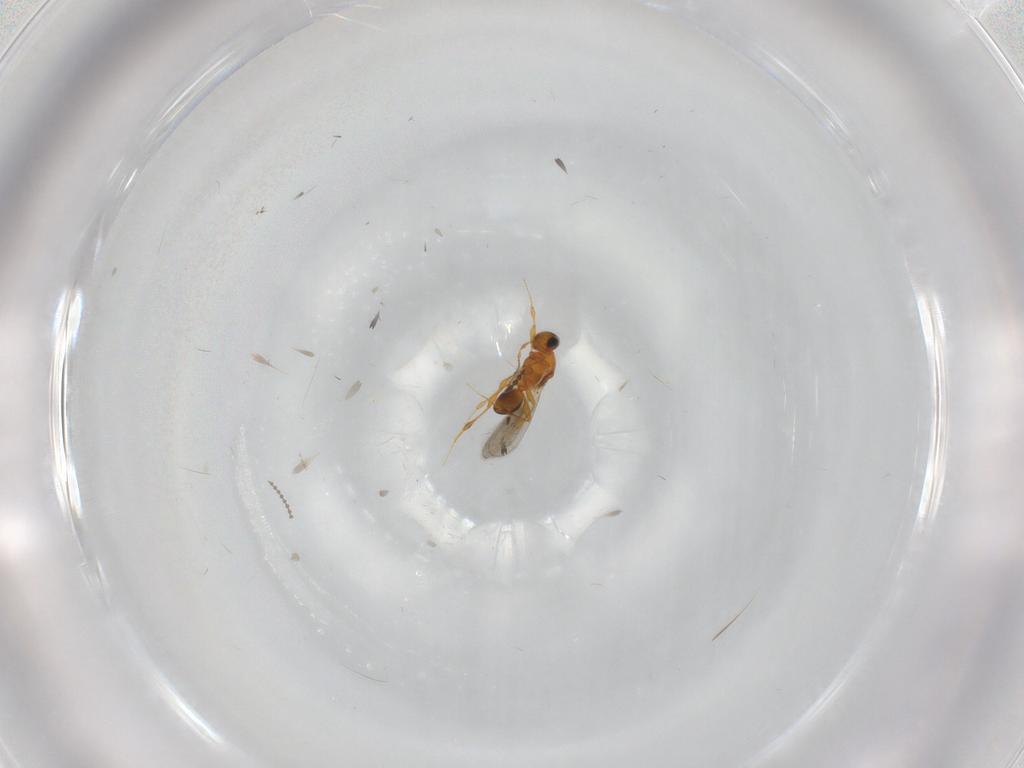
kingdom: Animalia
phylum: Arthropoda
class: Insecta
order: Hymenoptera
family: Platygastridae
